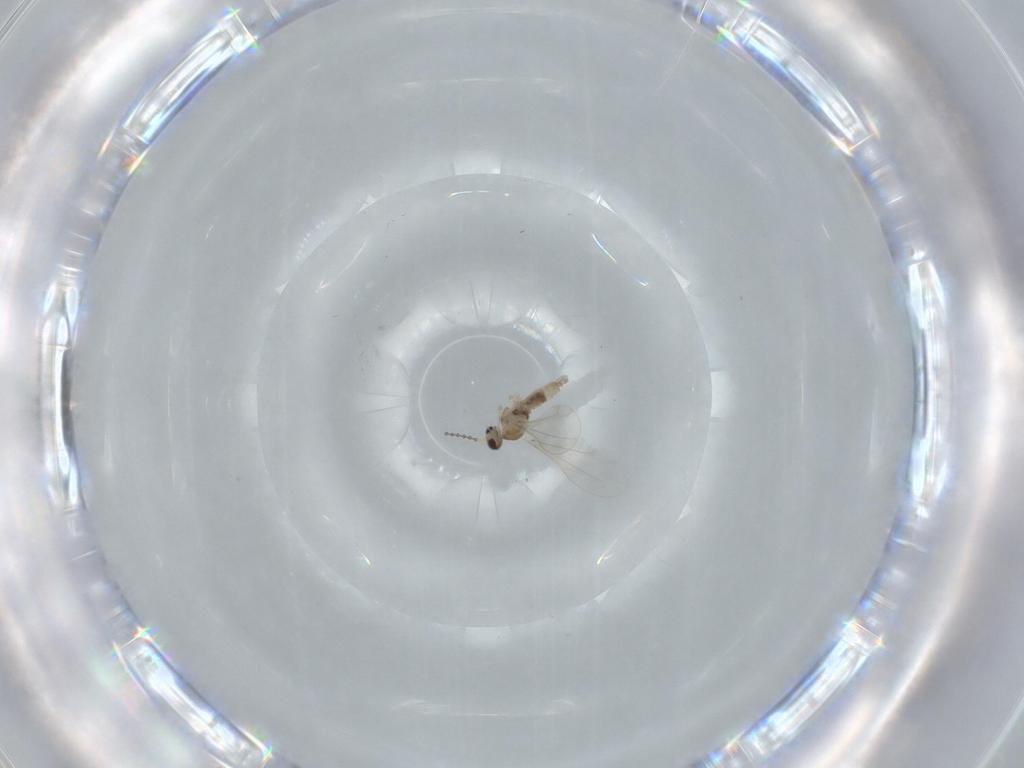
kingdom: Animalia
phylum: Arthropoda
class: Insecta
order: Diptera
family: Cecidomyiidae
